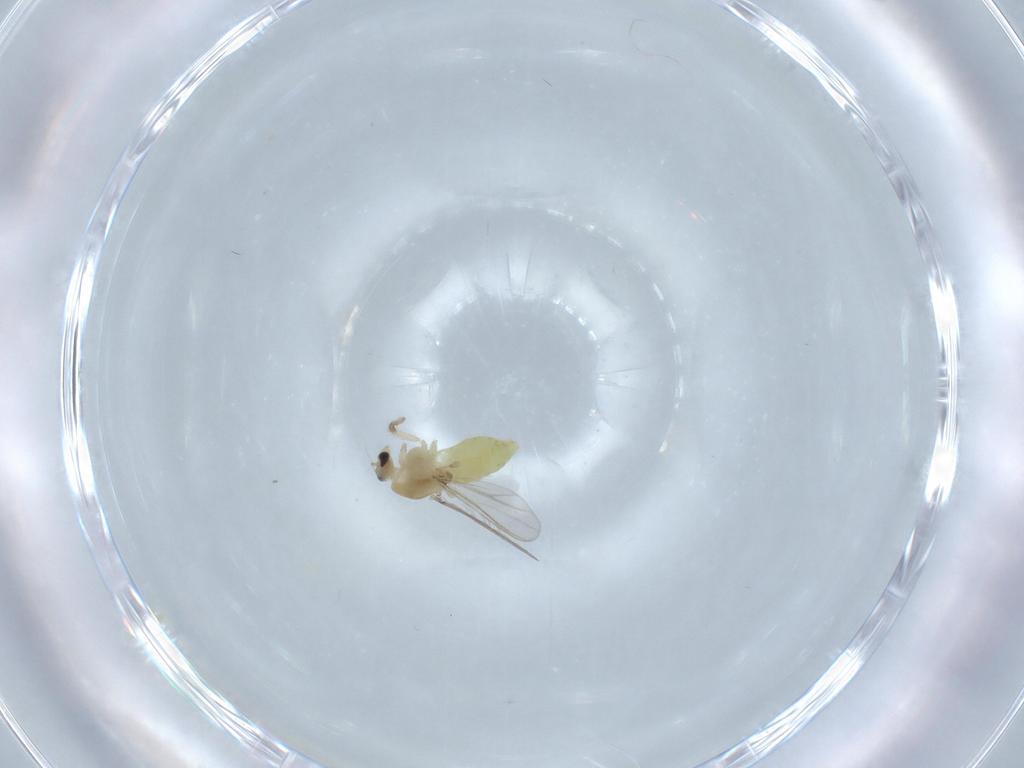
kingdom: Animalia
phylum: Arthropoda
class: Insecta
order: Diptera
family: Chironomidae
